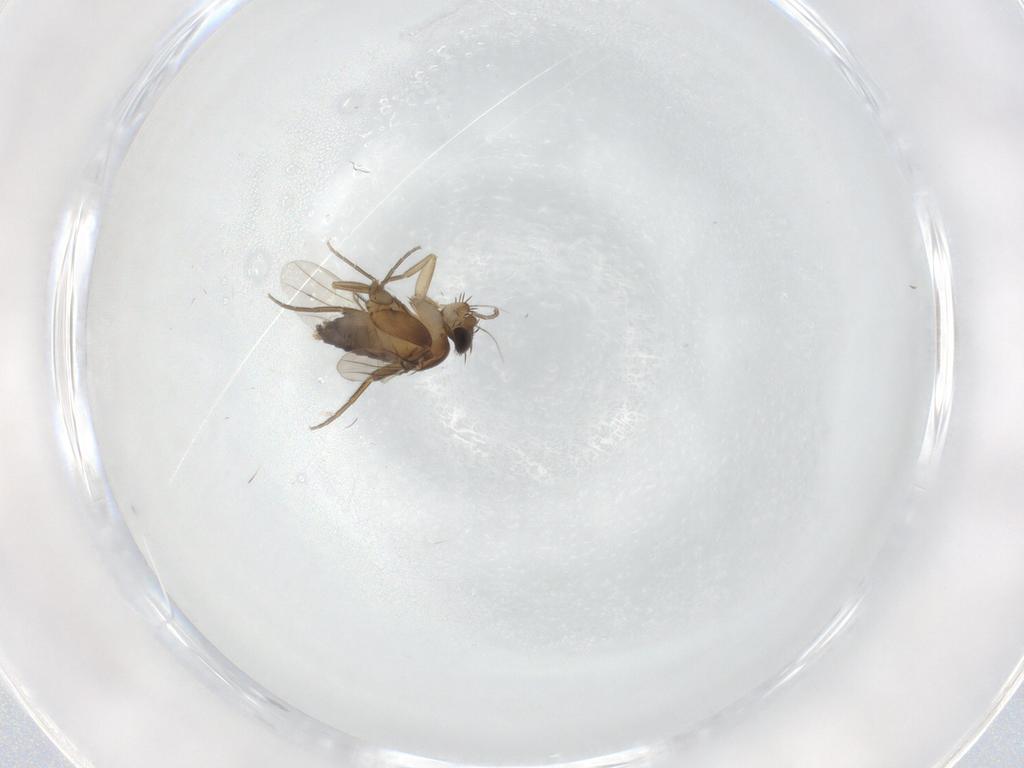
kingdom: Animalia
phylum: Arthropoda
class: Insecta
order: Diptera
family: Phoridae
